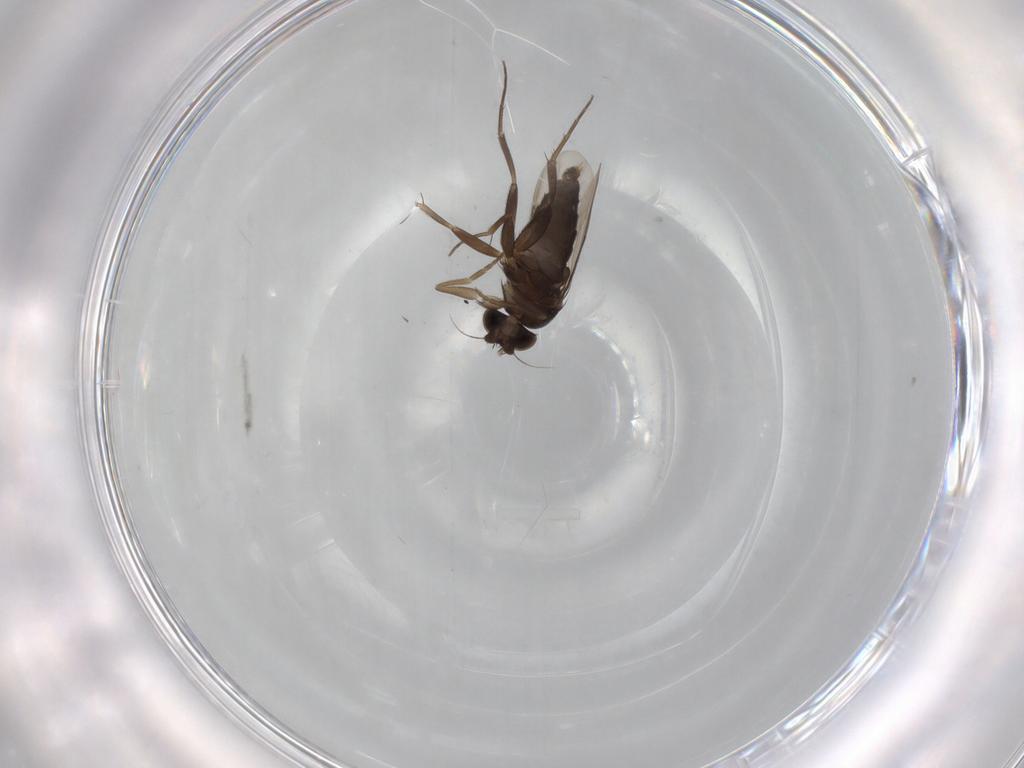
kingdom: Animalia
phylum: Arthropoda
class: Insecta
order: Diptera
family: Phoridae
